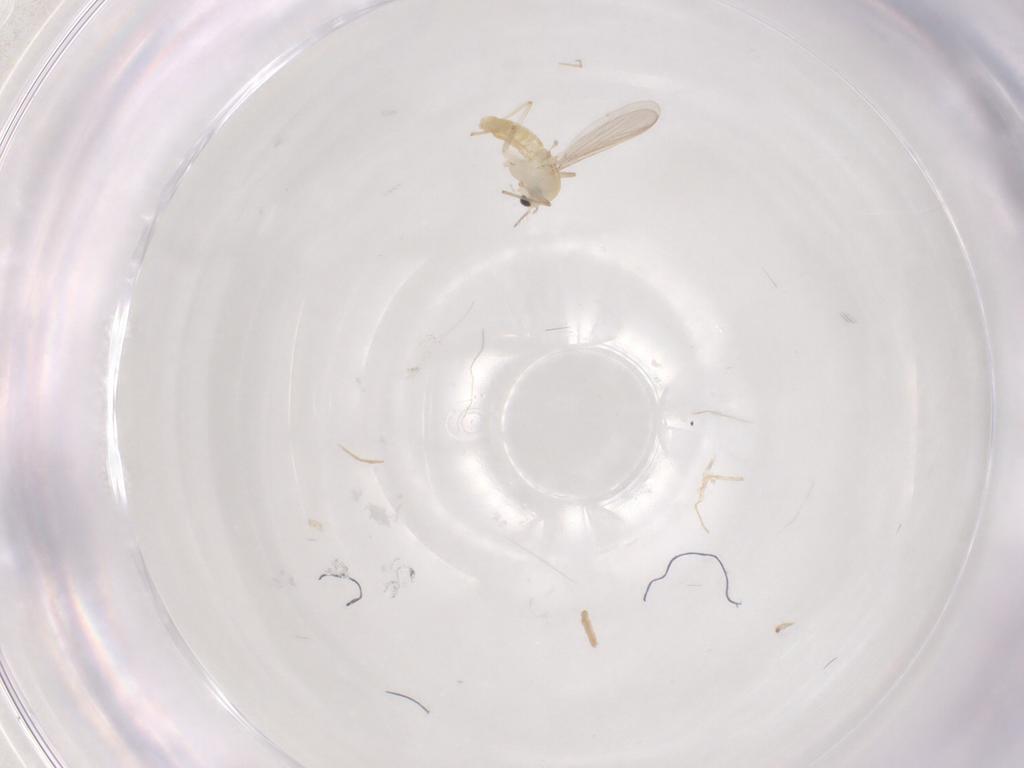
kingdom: Animalia
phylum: Arthropoda
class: Insecta
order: Diptera
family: Chironomidae
